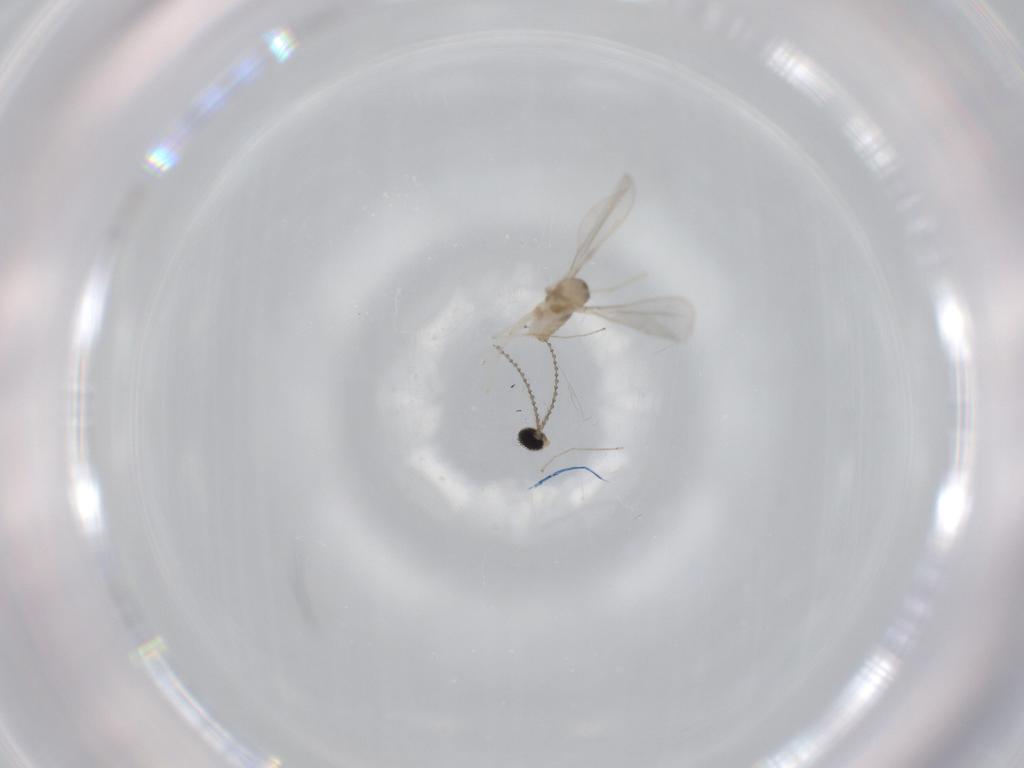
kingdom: Animalia
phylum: Arthropoda
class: Insecta
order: Diptera
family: Cecidomyiidae
